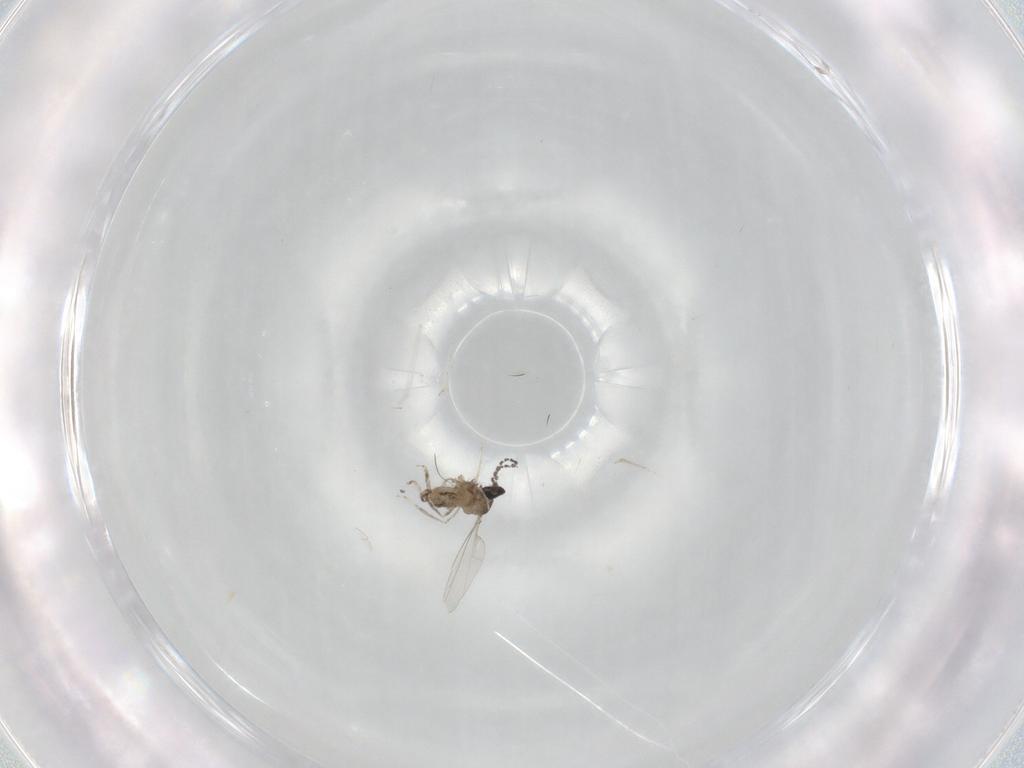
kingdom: Animalia
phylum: Arthropoda
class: Insecta
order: Diptera
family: Cecidomyiidae
